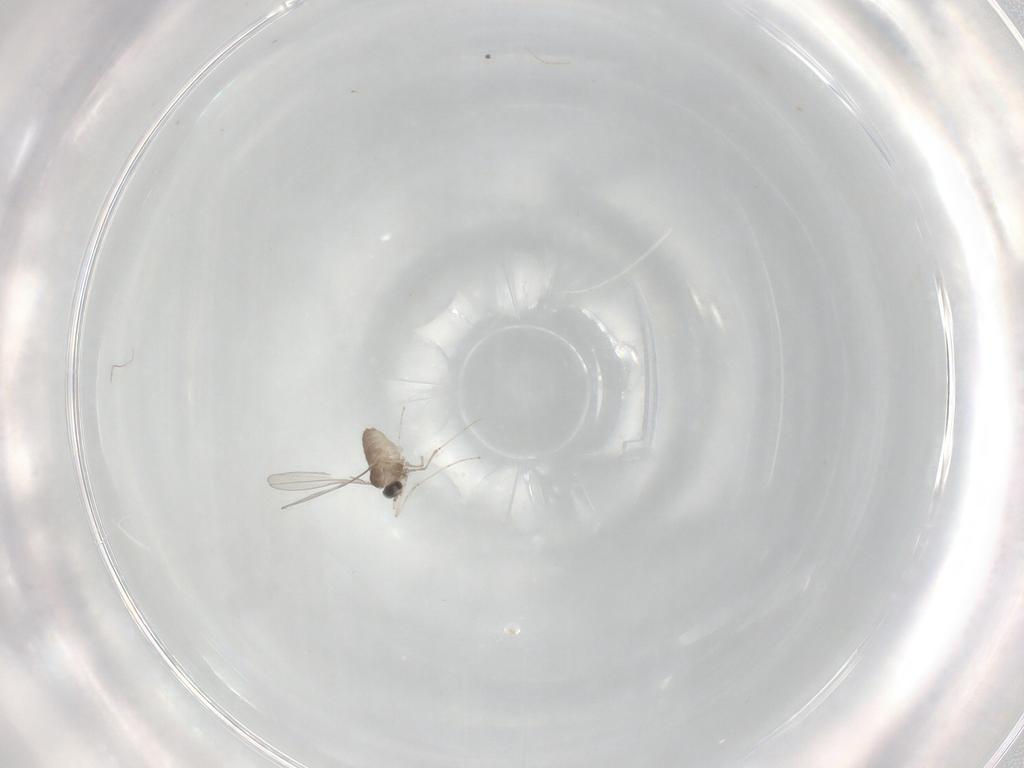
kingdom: Animalia
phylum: Arthropoda
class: Insecta
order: Diptera
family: Cecidomyiidae
